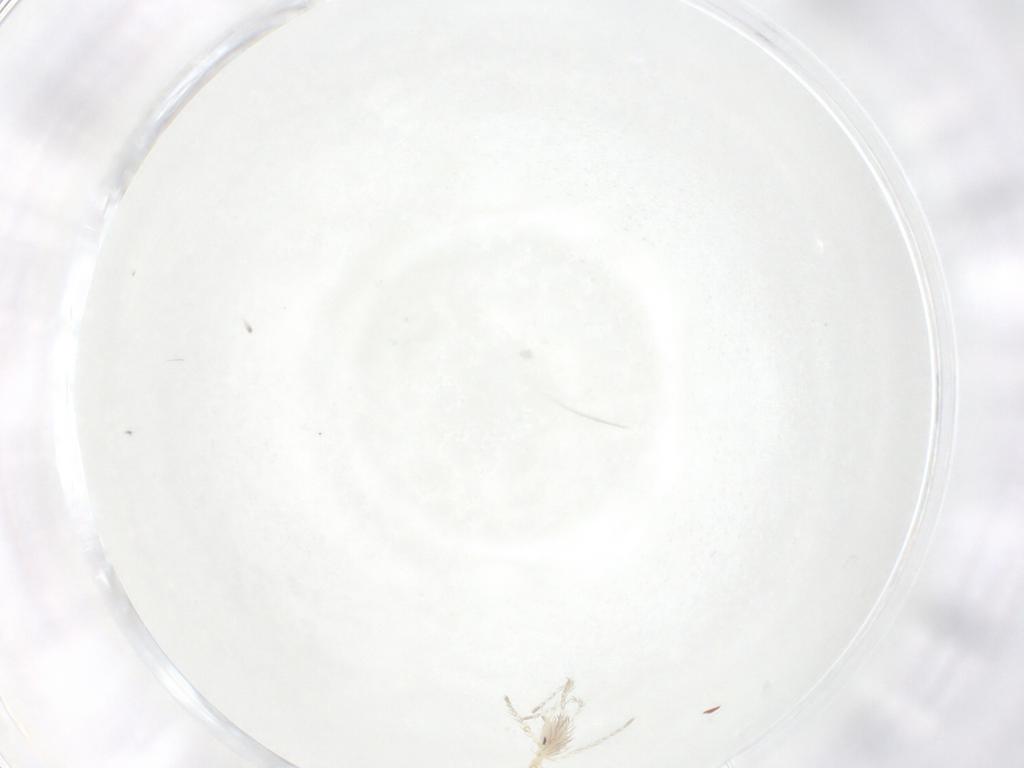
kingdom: Animalia
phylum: Arthropoda
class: Arachnida
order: Trombidiformes
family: Erythraeidae
